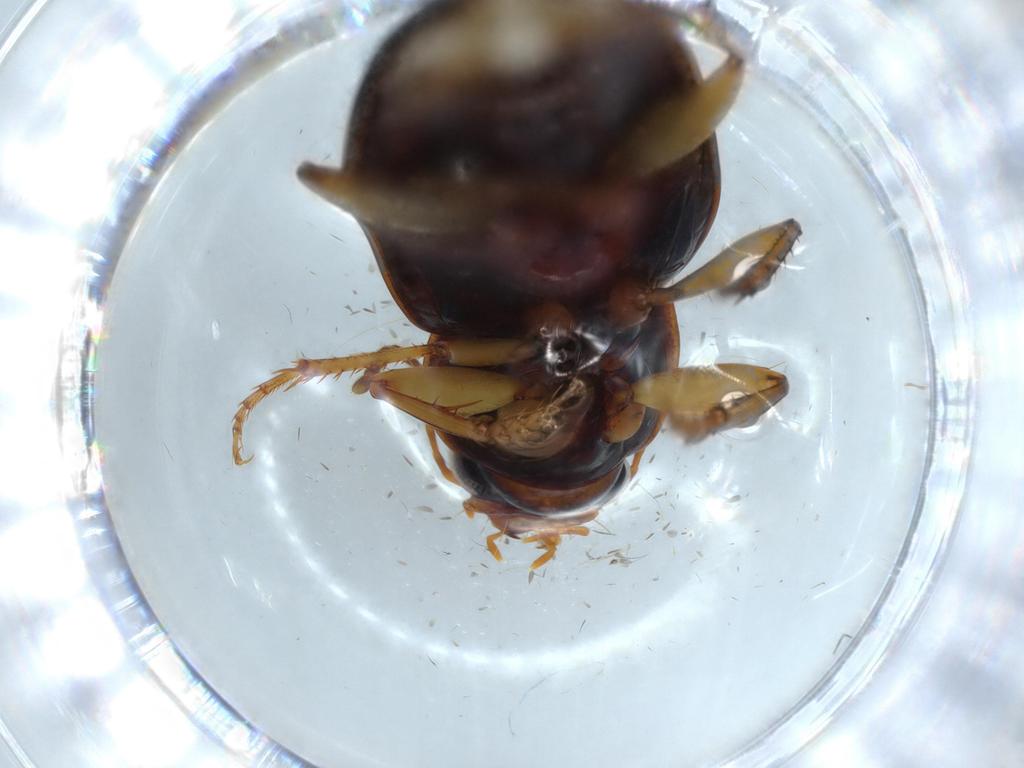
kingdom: Animalia
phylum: Arthropoda
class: Insecta
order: Coleoptera
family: Carabidae
